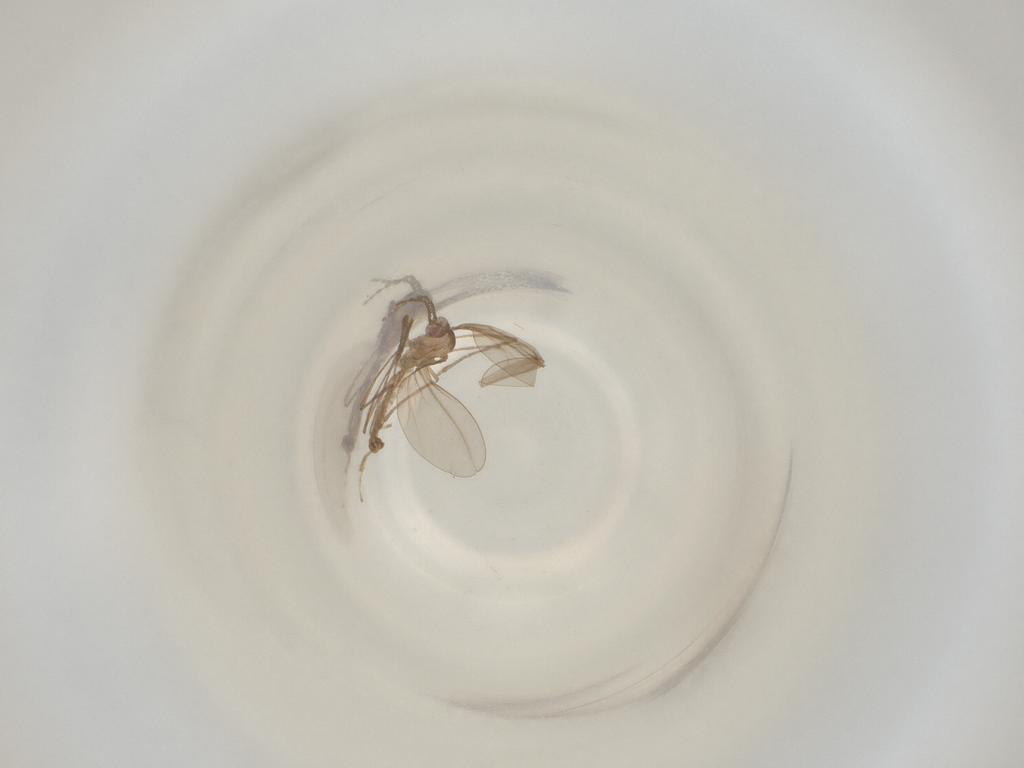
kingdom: Animalia
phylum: Arthropoda
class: Insecta
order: Diptera
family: Cecidomyiidae
